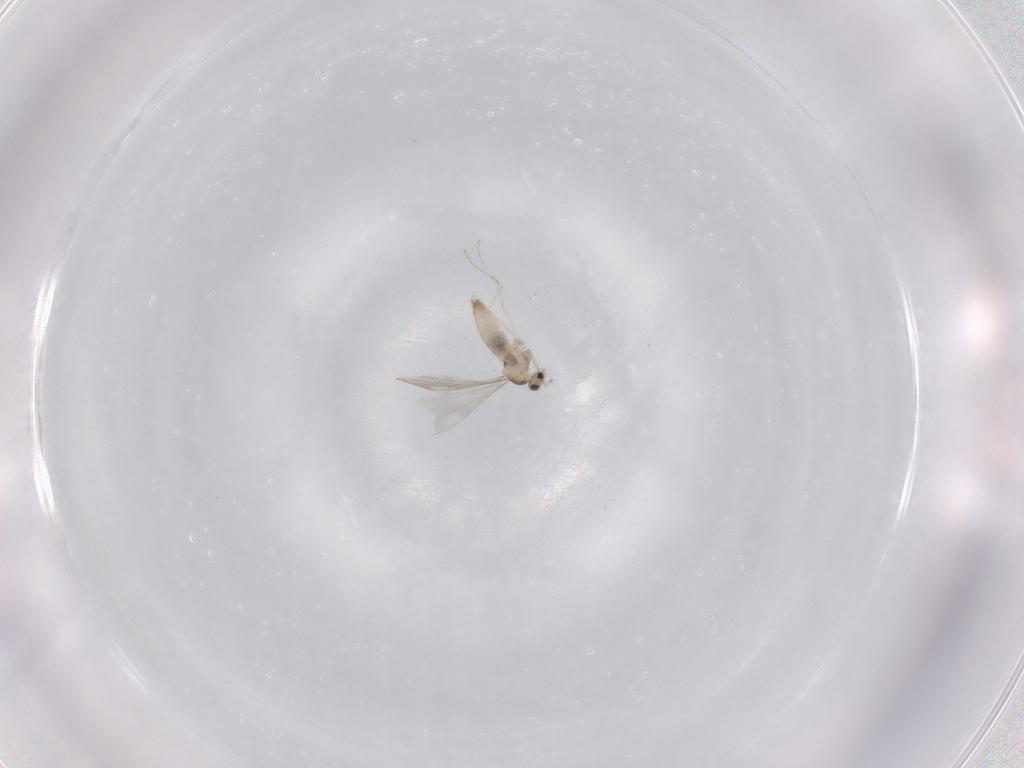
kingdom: Animalia
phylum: Arthropoda
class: Insecta
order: Diptera
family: Cecidomyiidae
